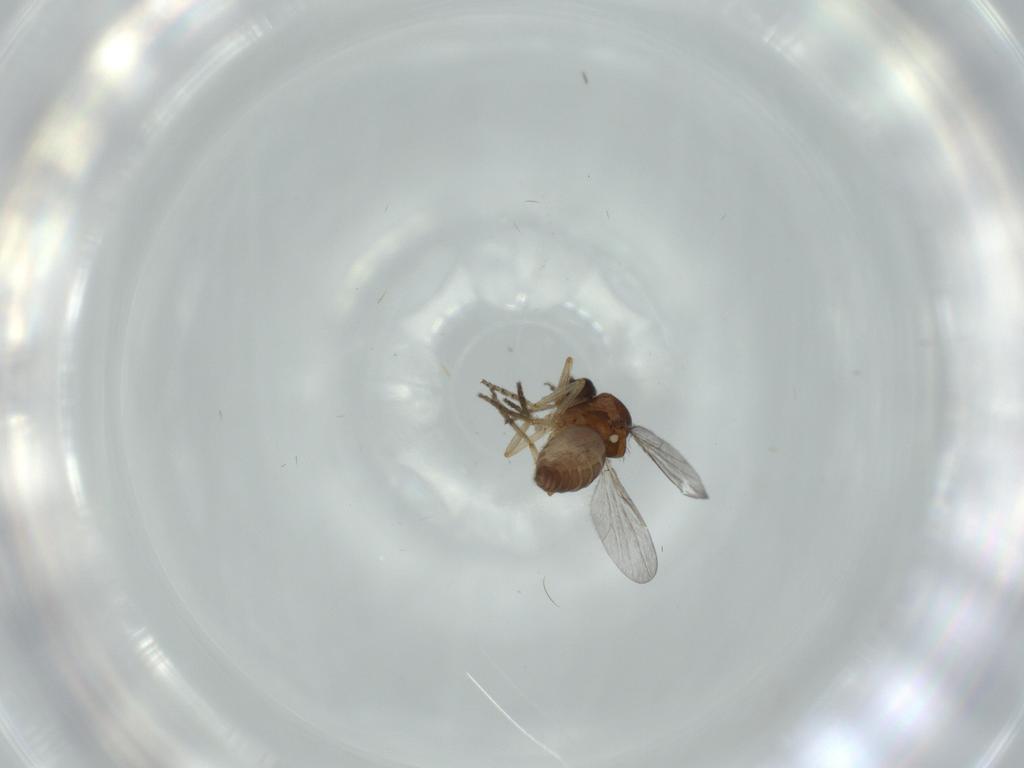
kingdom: Animalia
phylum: Arthropoda
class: Insecta
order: Diptera
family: Ceratopogonidae
